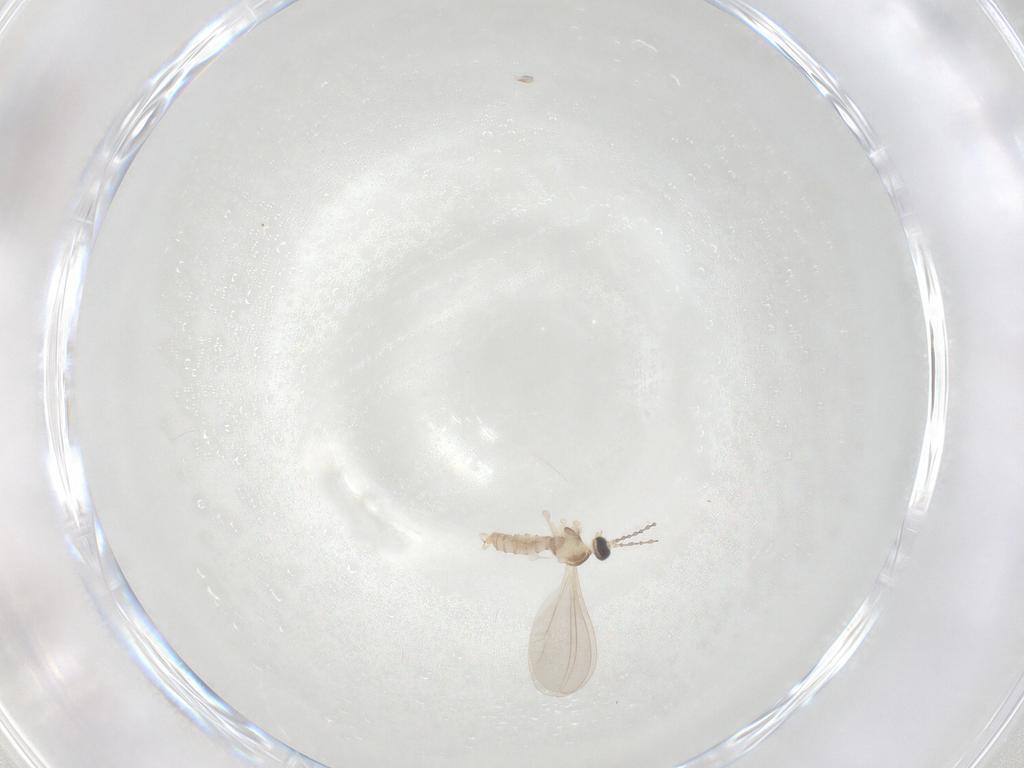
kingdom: Animalia
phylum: Arthropoda
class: Insecta
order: Diptera
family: Cecidomyiidae
